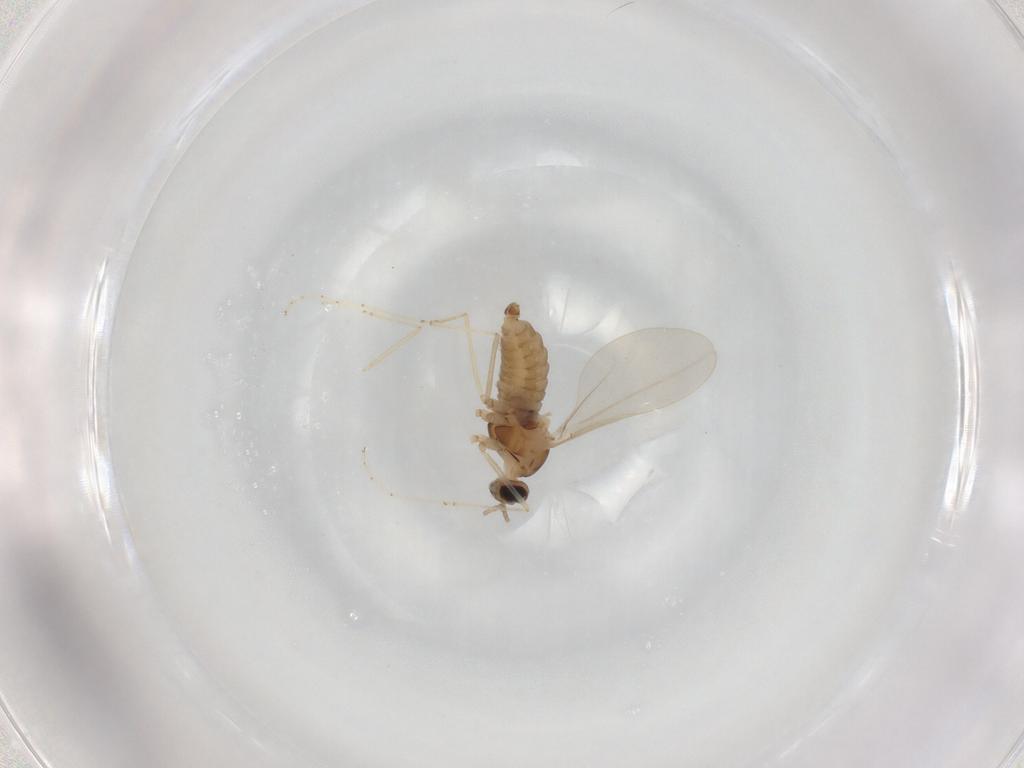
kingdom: Animalia
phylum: Arthropoda
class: Insecta
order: Diptera
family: Cecidomyiidae
